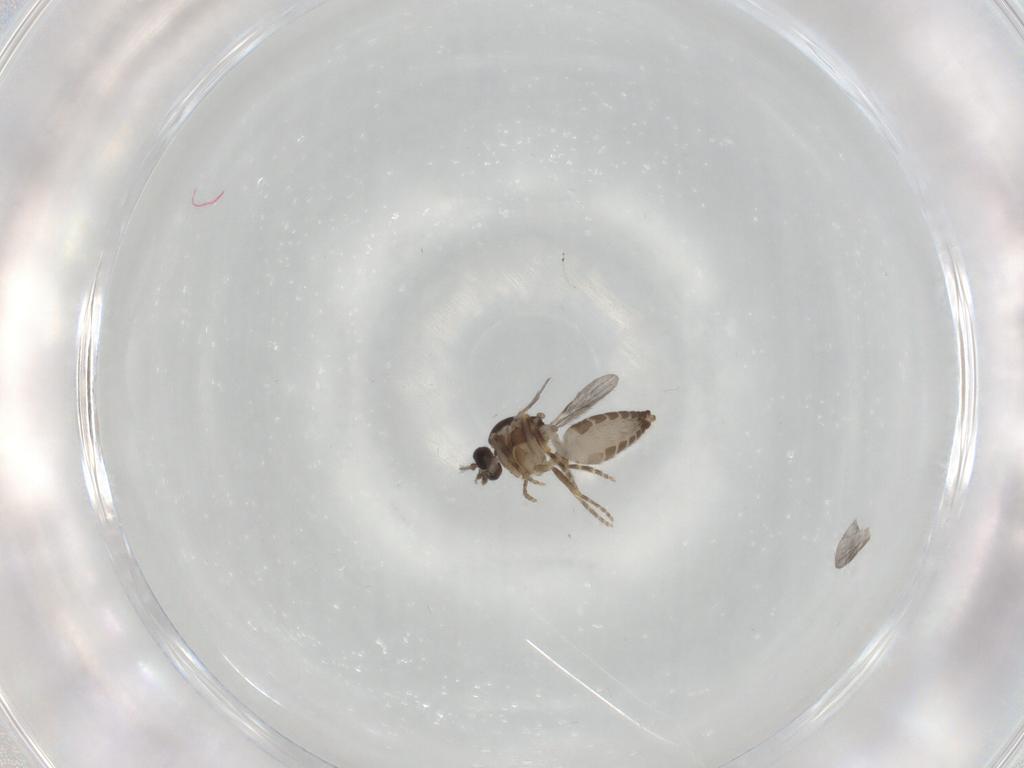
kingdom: Animalia
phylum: Arthropoda
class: Insecta
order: Diptera
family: Ceratopogonidae
